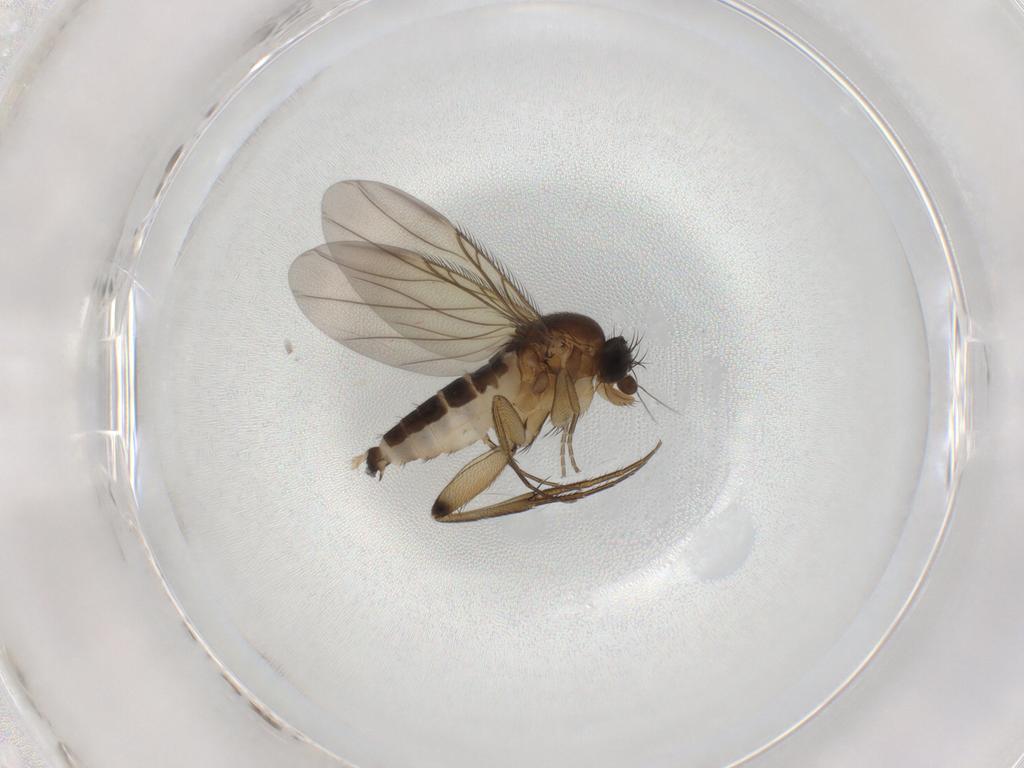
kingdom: Animalia
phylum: Arthropoda
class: Insecta
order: Diptera
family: Phoridae
